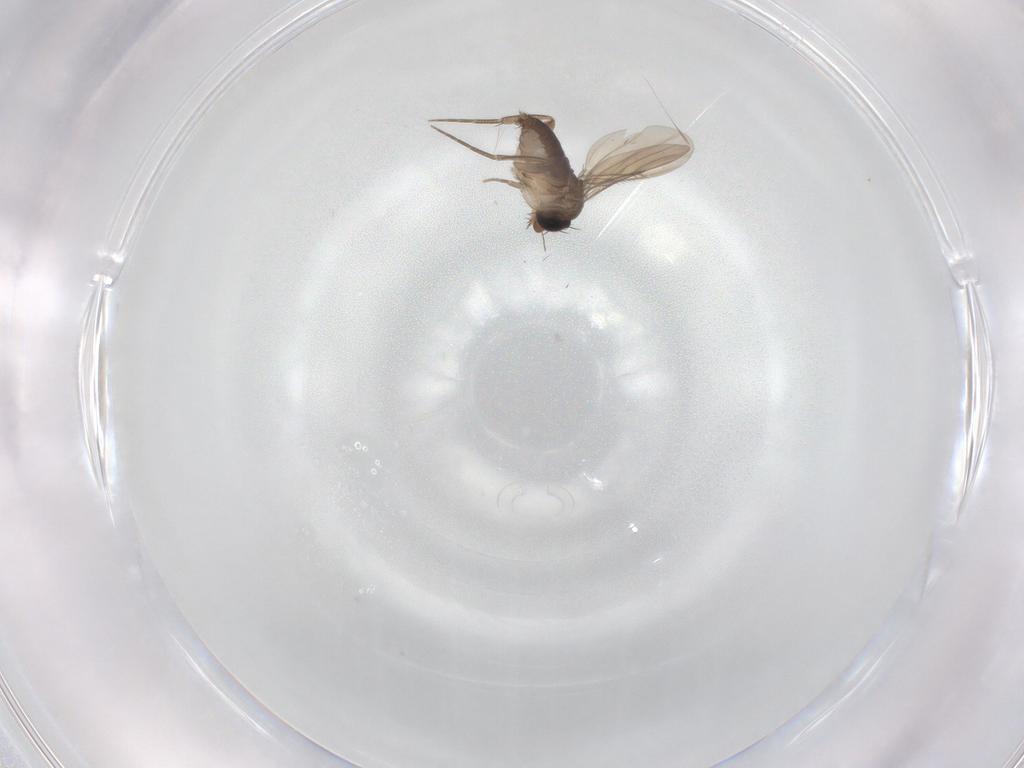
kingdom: Animalia
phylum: Arthropoda
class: Insecta
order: Diptera
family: Phoridae
